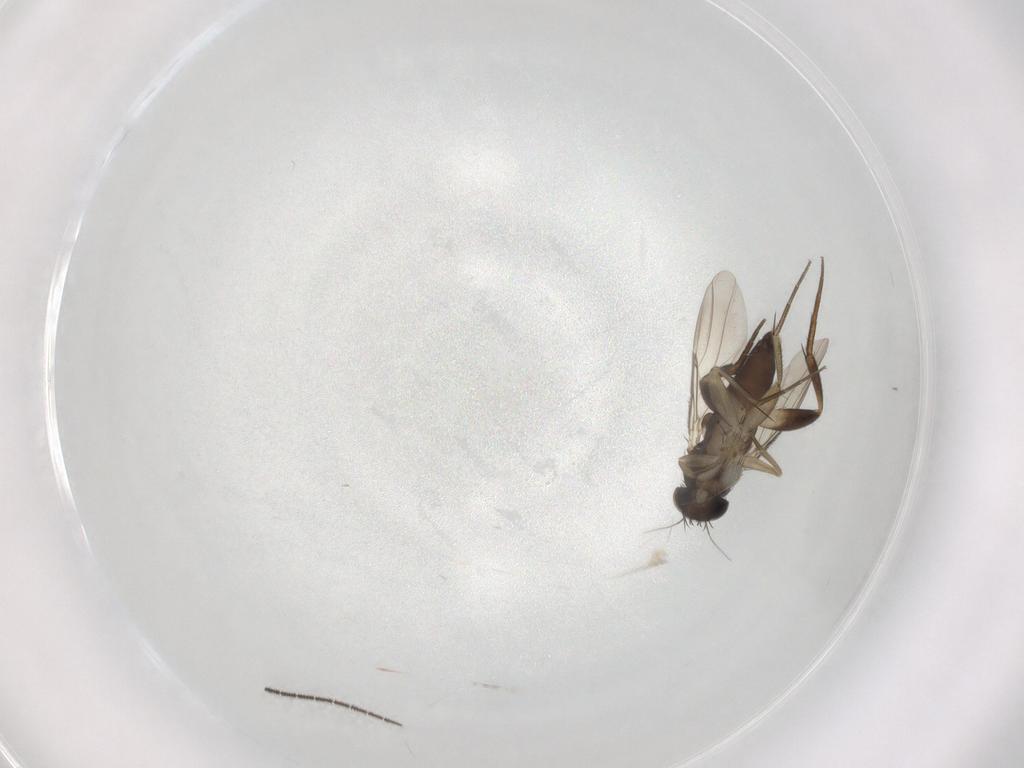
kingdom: Animalia
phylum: Arthropoda
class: Insecta
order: Diptera
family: Phoridae
